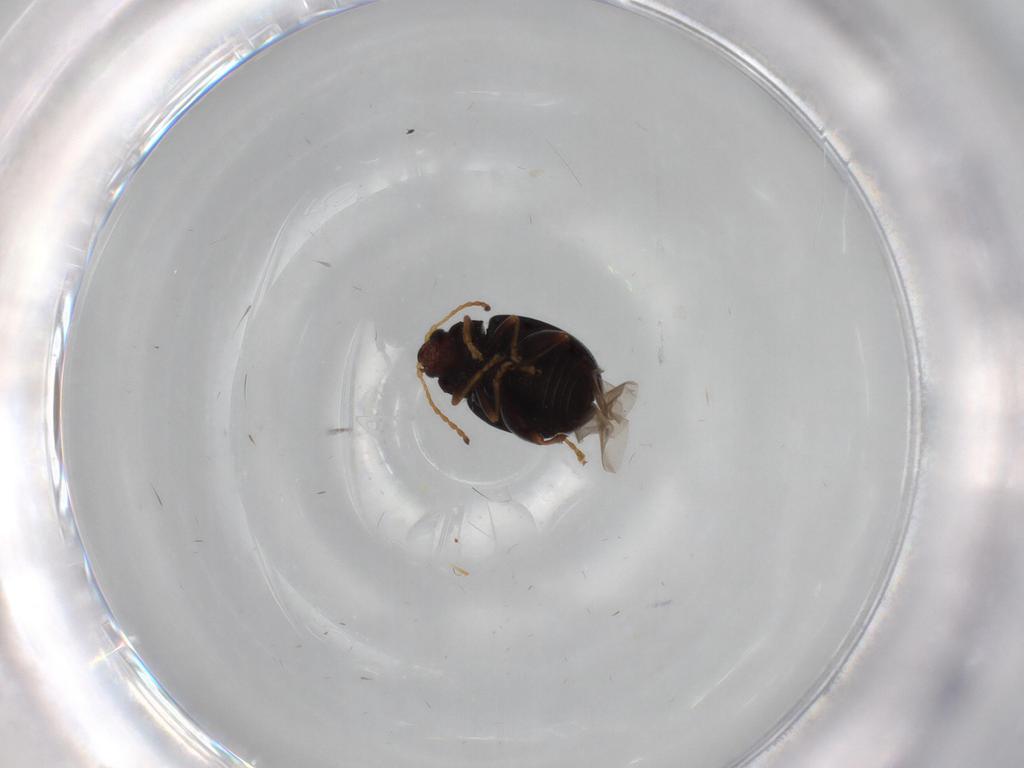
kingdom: Animalia
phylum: Arthropoda
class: Insecta
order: Coleoptera
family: Chrysomelidae
